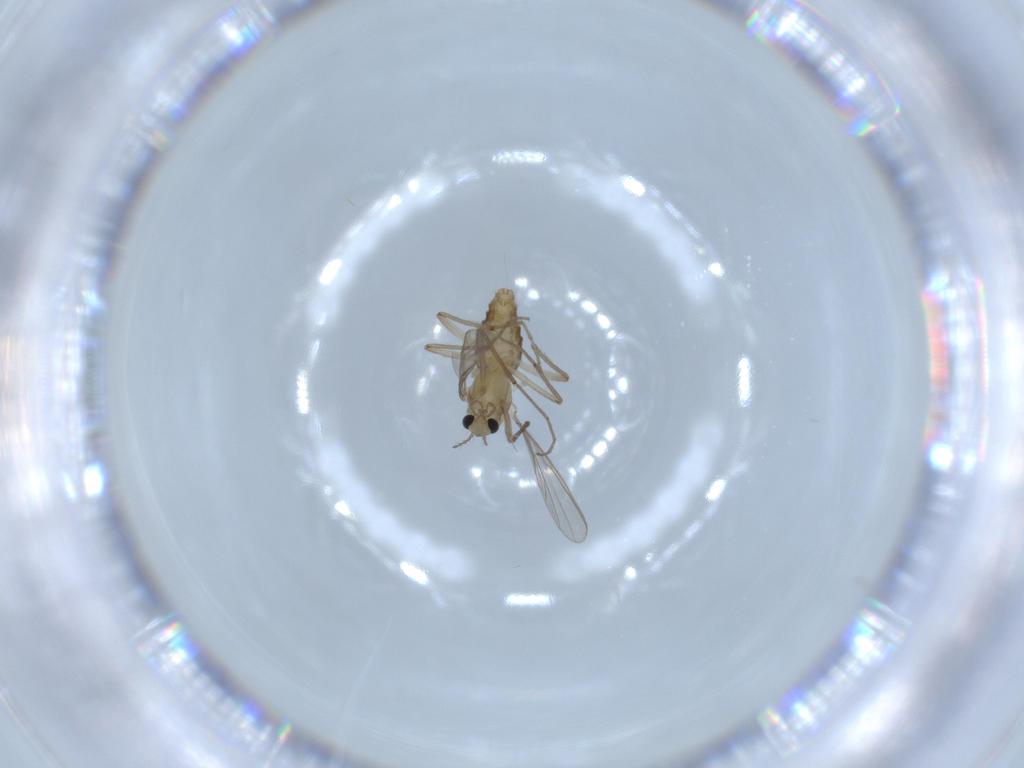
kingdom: Animalia
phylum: Arthropoda
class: Insecta
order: Diptera
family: Chironomidae
